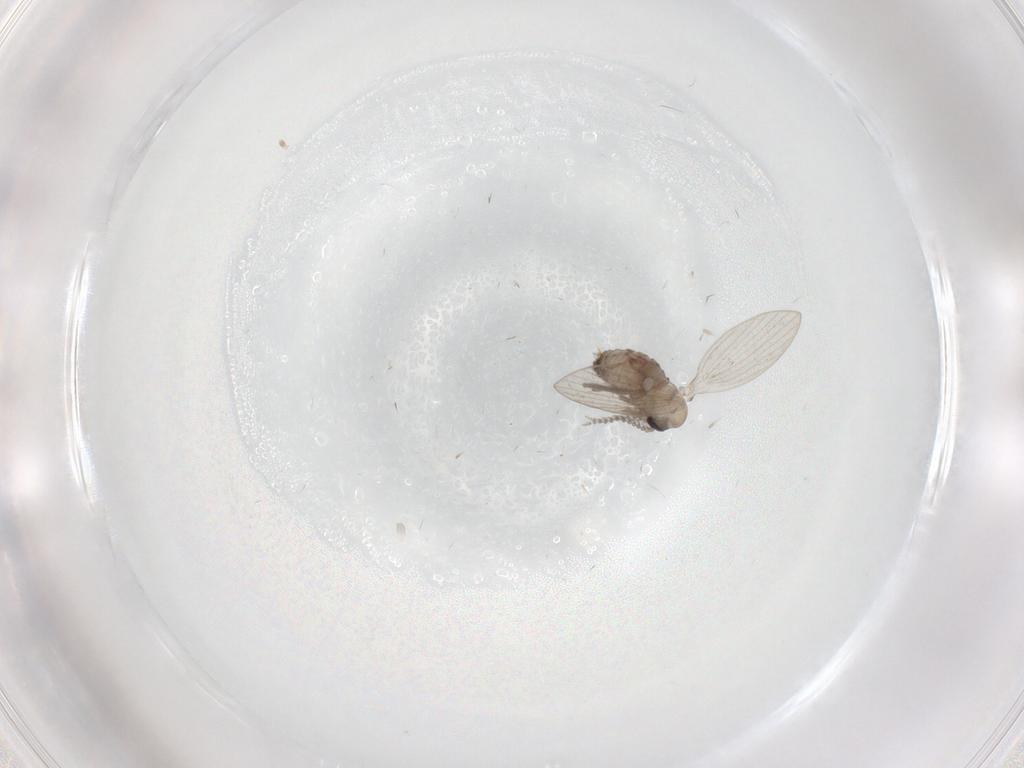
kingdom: Animalia
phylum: Arthropoda
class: Insecta
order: Diptera
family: Psychodidae
